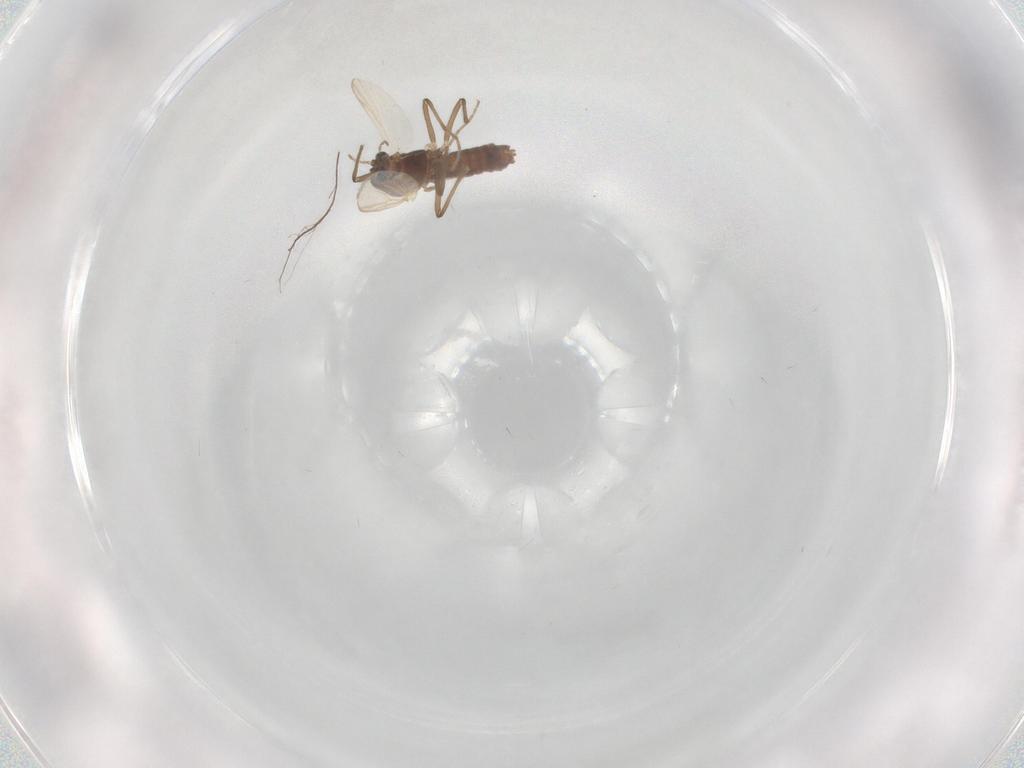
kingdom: Animalia
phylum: Arthropoda
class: Insecta
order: Diptera
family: Chironomidae
